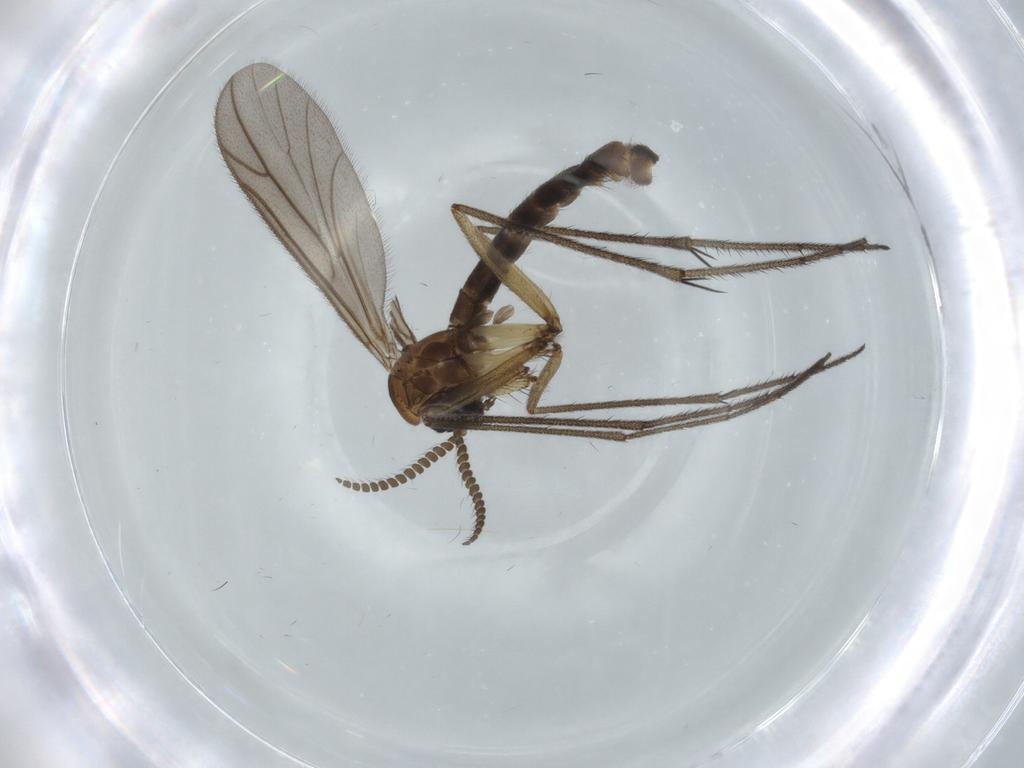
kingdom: Animalia
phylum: Arthropoda
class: Insecta
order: Diptera
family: Chironomidae
